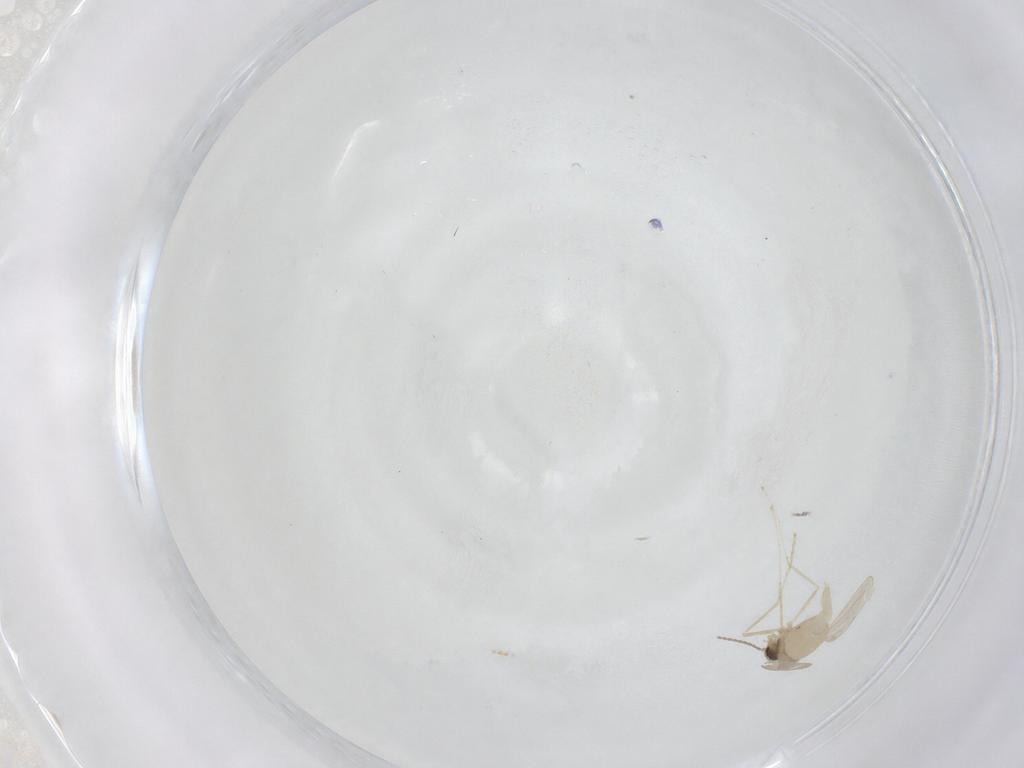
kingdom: Animalia
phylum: Arthropoda
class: Insecta
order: Diptera
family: Cecidomyiidae
